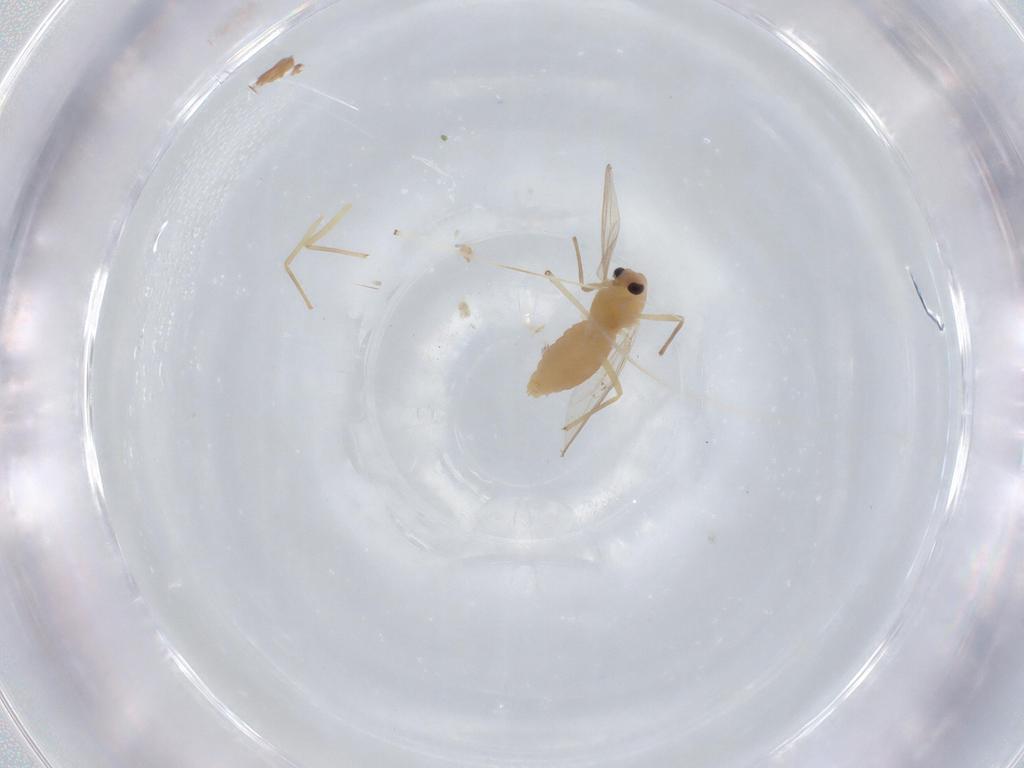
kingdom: Animalia
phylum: Arthropoda
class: Insecta
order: Diptera
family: Chironomidae
